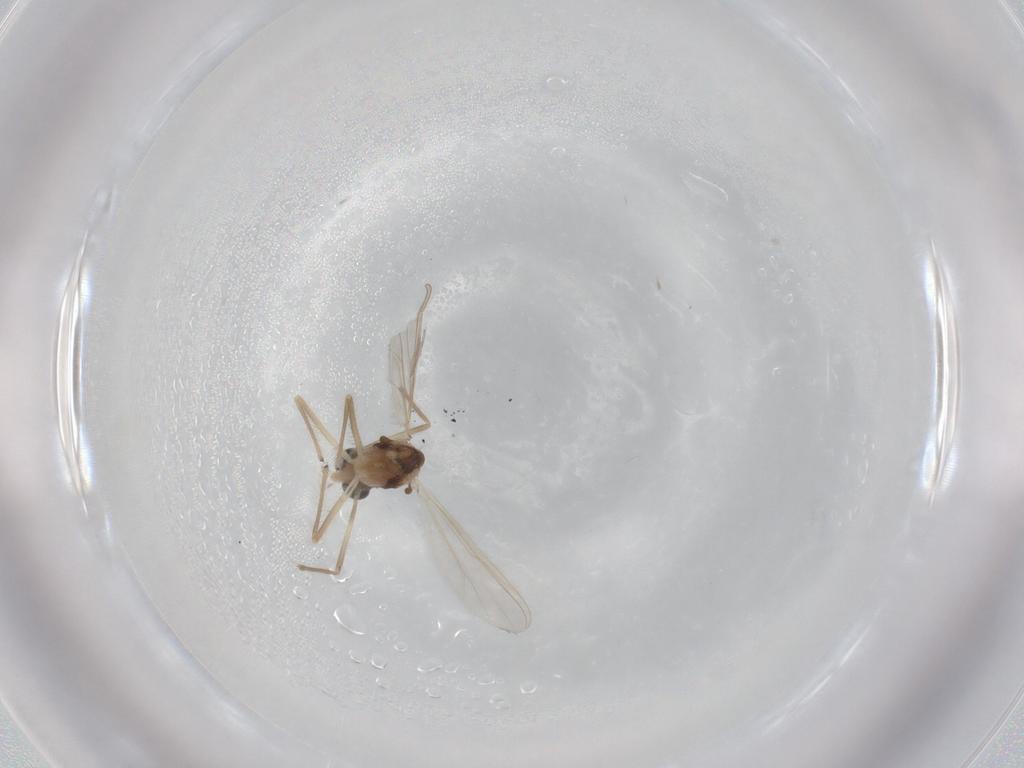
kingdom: Animalia
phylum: Arthropoda
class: Insecta
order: Diptera
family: Chironomidae
